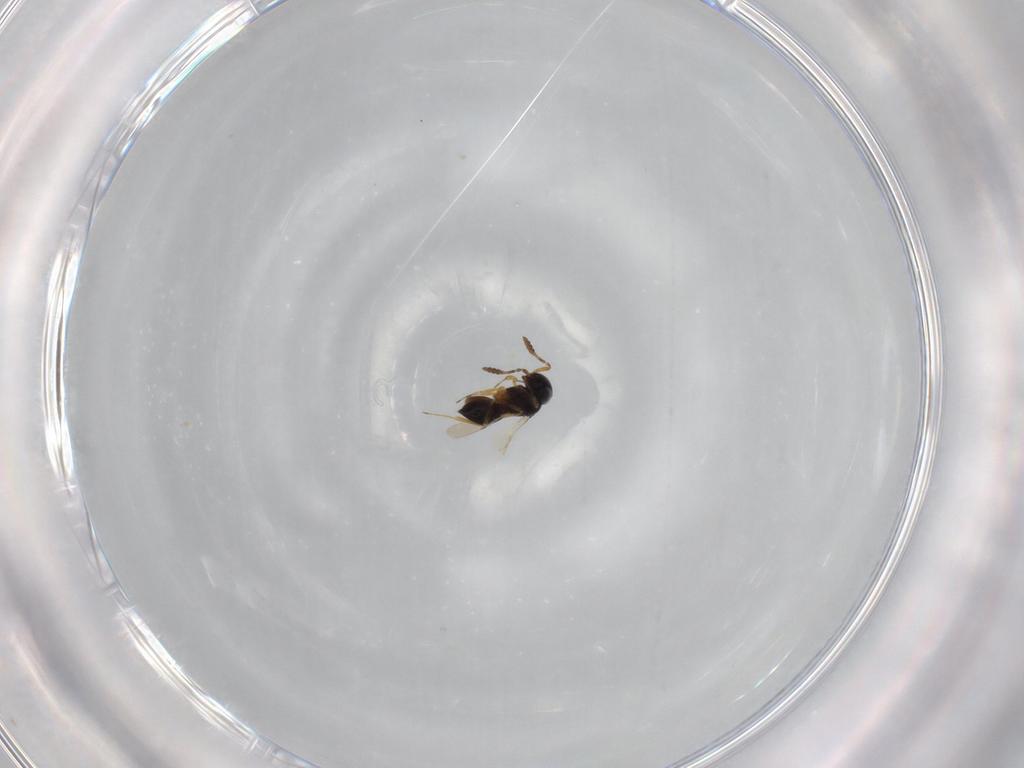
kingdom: Animalia
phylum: Arthropoda
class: Insecta
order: Hymenoptera
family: Scelionidae
